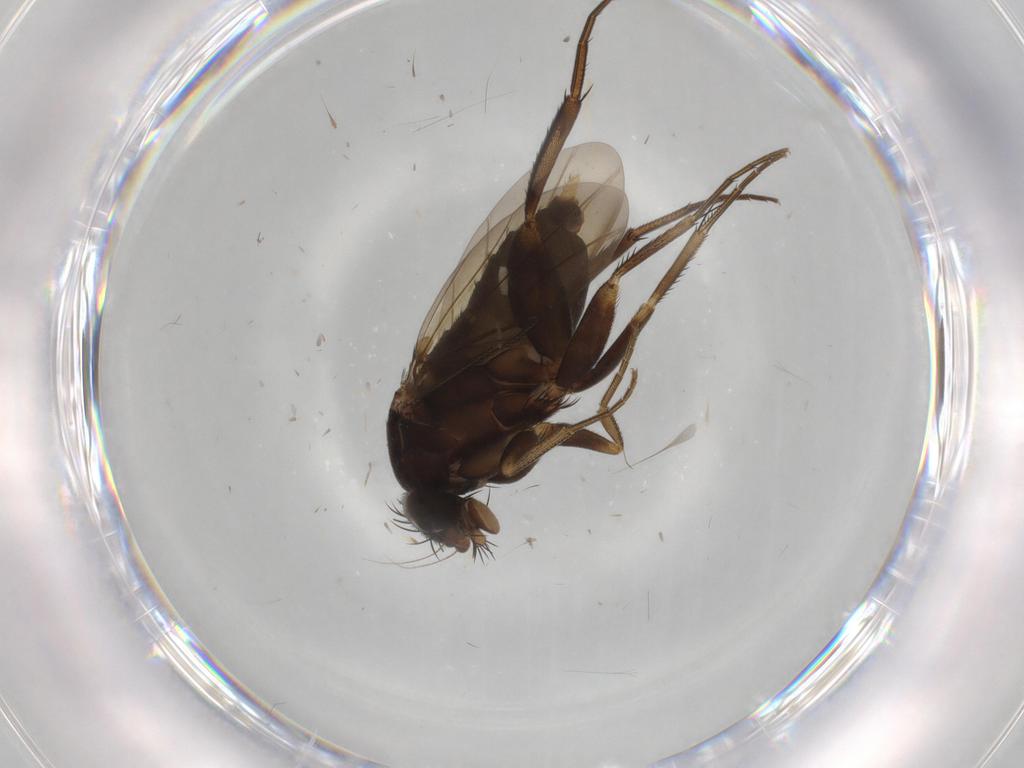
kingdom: Animalia
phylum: Arthropoda
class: Insecta
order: Diptera
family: Phoridae
